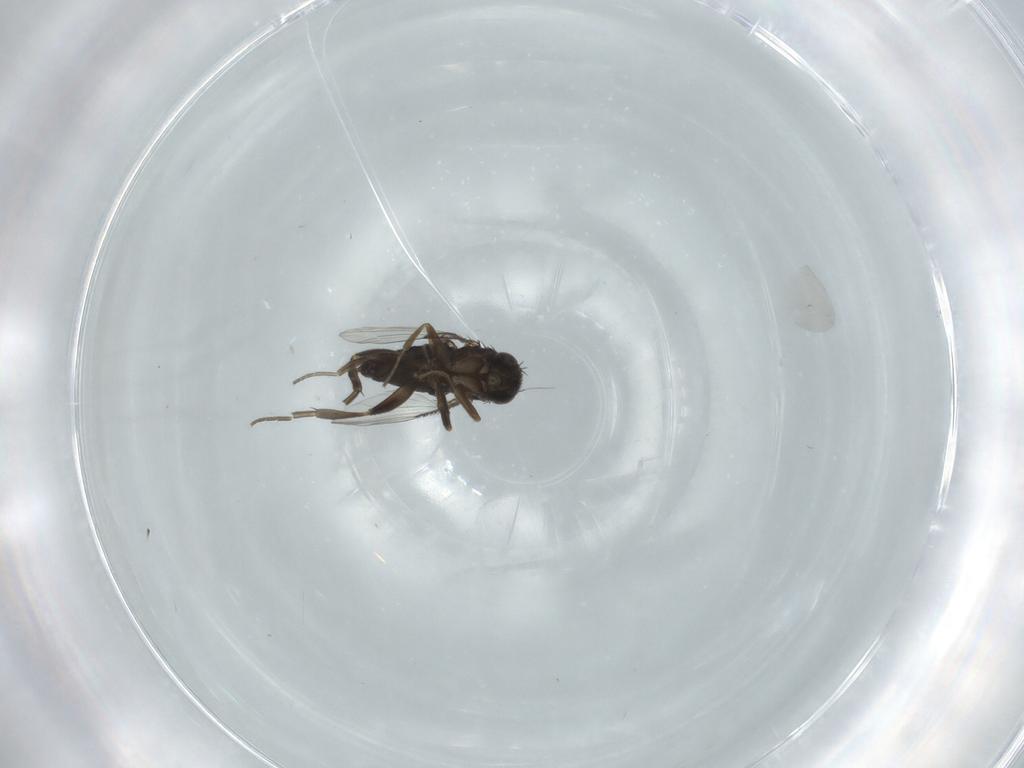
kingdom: Animalia
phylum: Arthropoda
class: Insecta
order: Diptera
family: Phoridae
